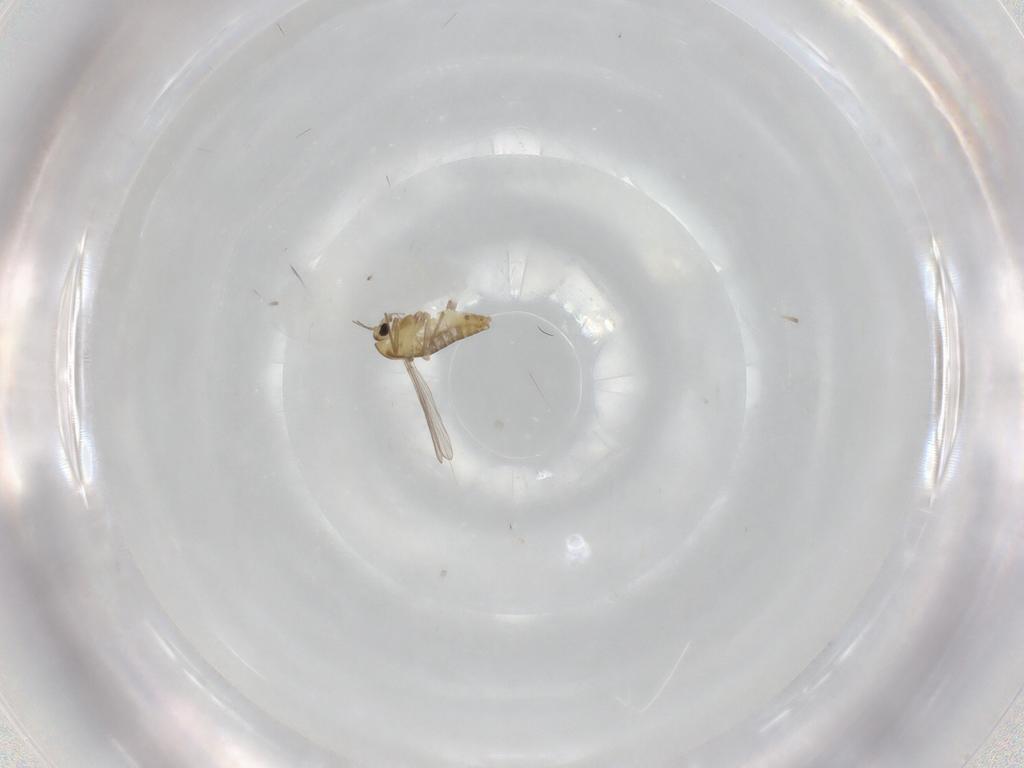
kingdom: Animalia
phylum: Arthropoda
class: Insecta
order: Diptera
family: Chironomidae
